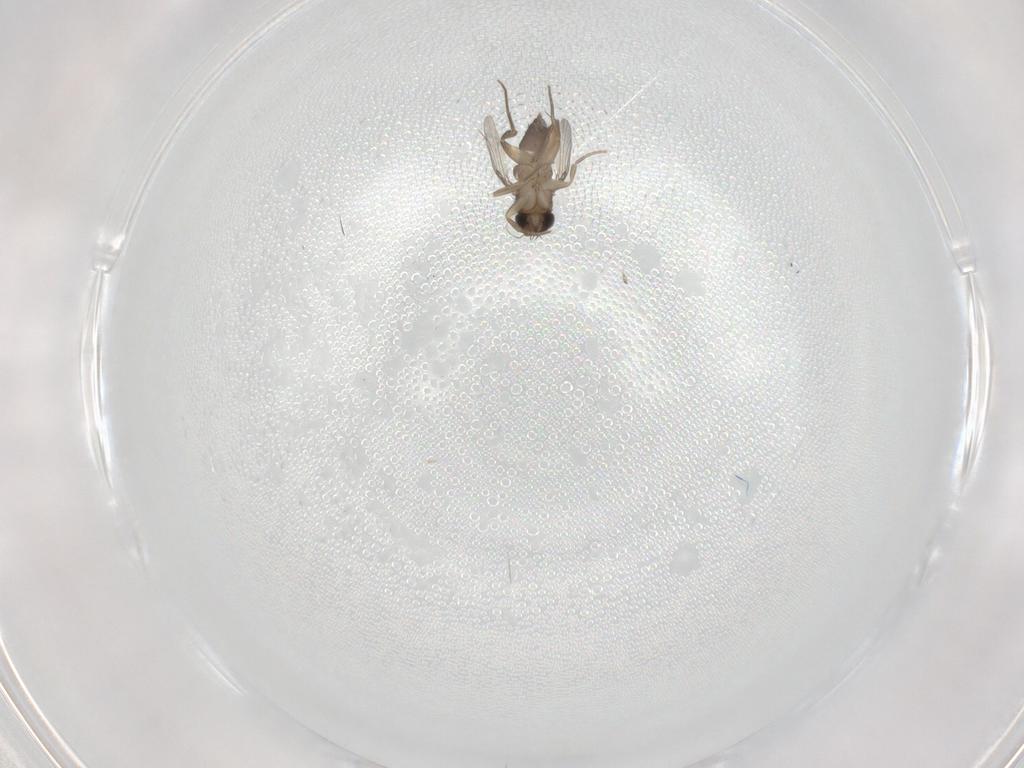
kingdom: Animalia
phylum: Arthropoda
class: Insecta
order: Diptera
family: Phoridae
